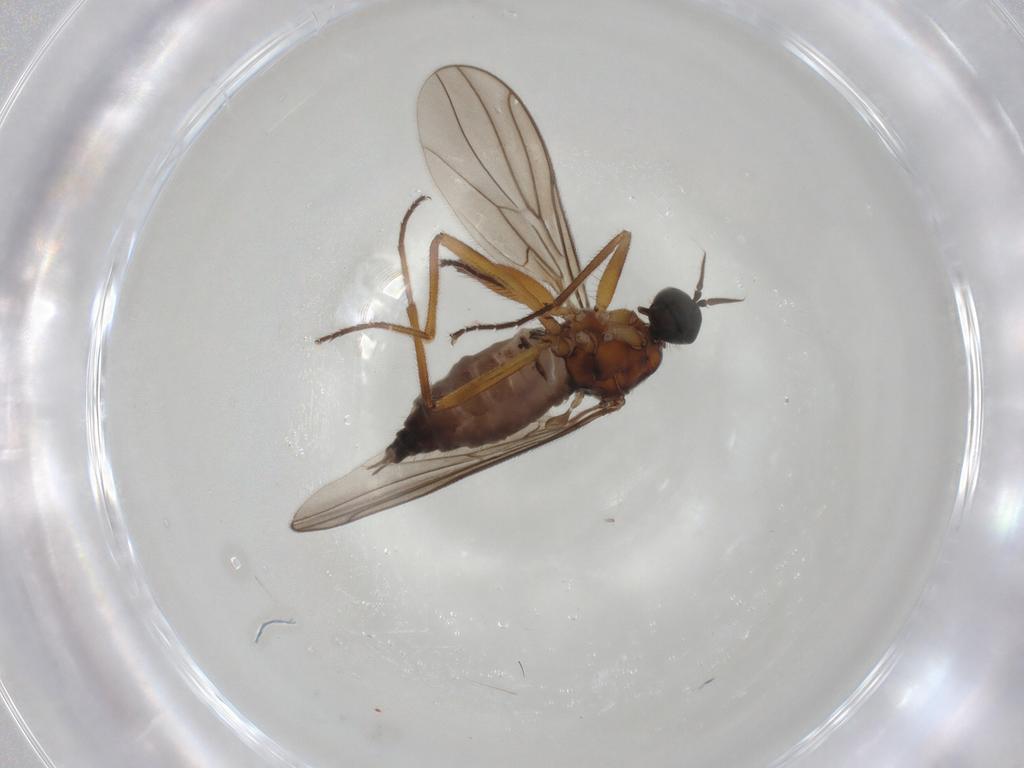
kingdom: Animalia
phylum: Arthropoda
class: Insecta
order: Diptera
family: Hybotidae
